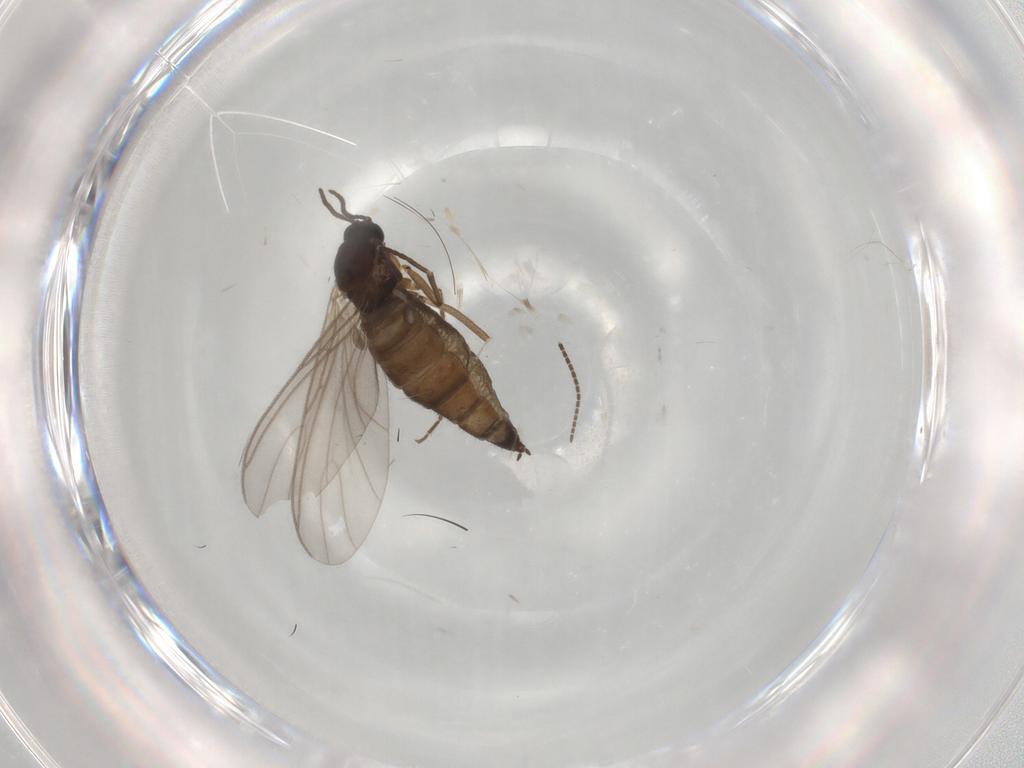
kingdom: Animalia
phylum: Arthropoda
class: Insecta
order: Diptera
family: Sciaridae
